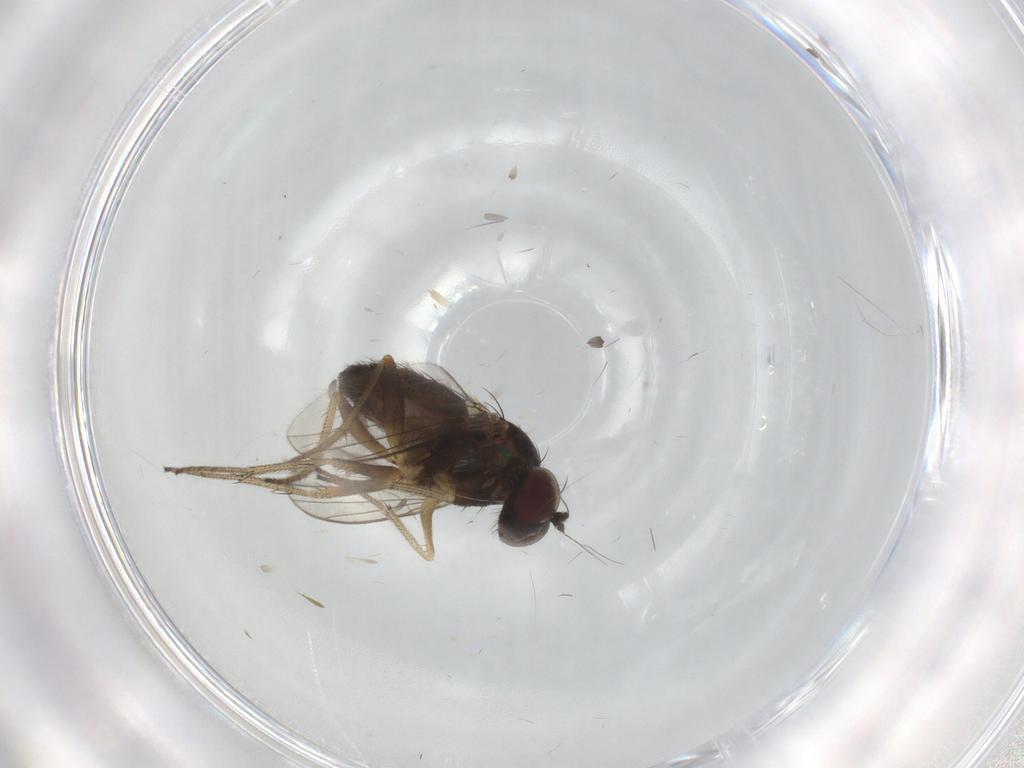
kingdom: Animalia
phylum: Arthropoda
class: Insecta
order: Diptera
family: Dolichopodidae
